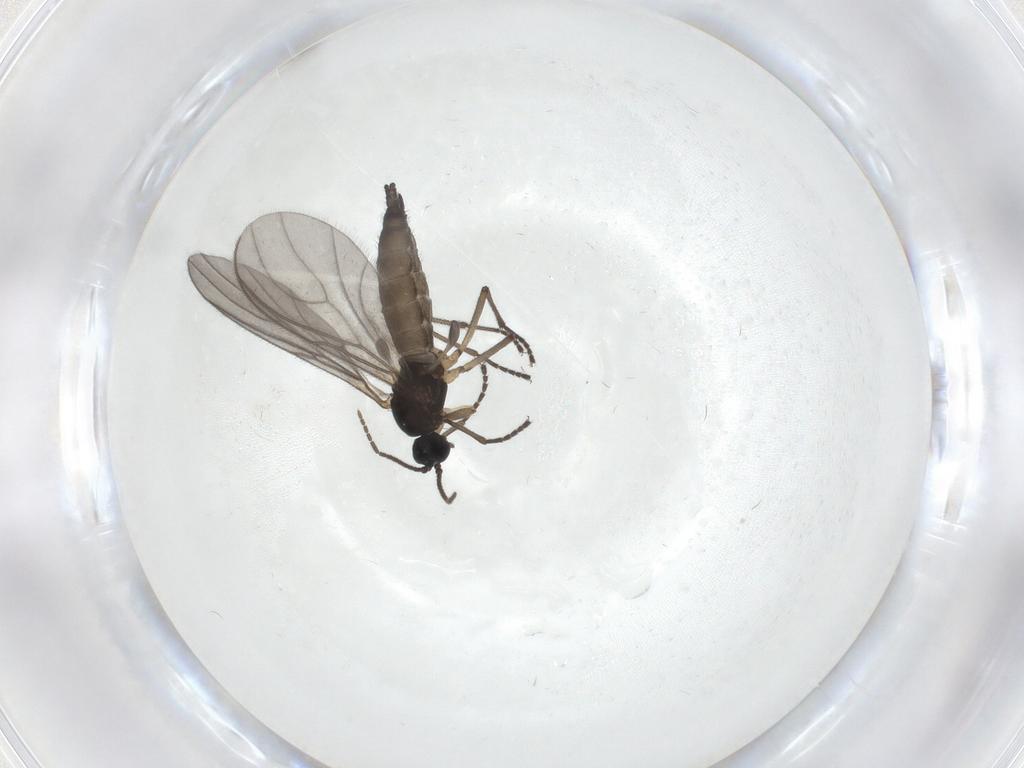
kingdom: Animalia
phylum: Arthropoda
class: Insecta
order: Diptera
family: Sciaridae
